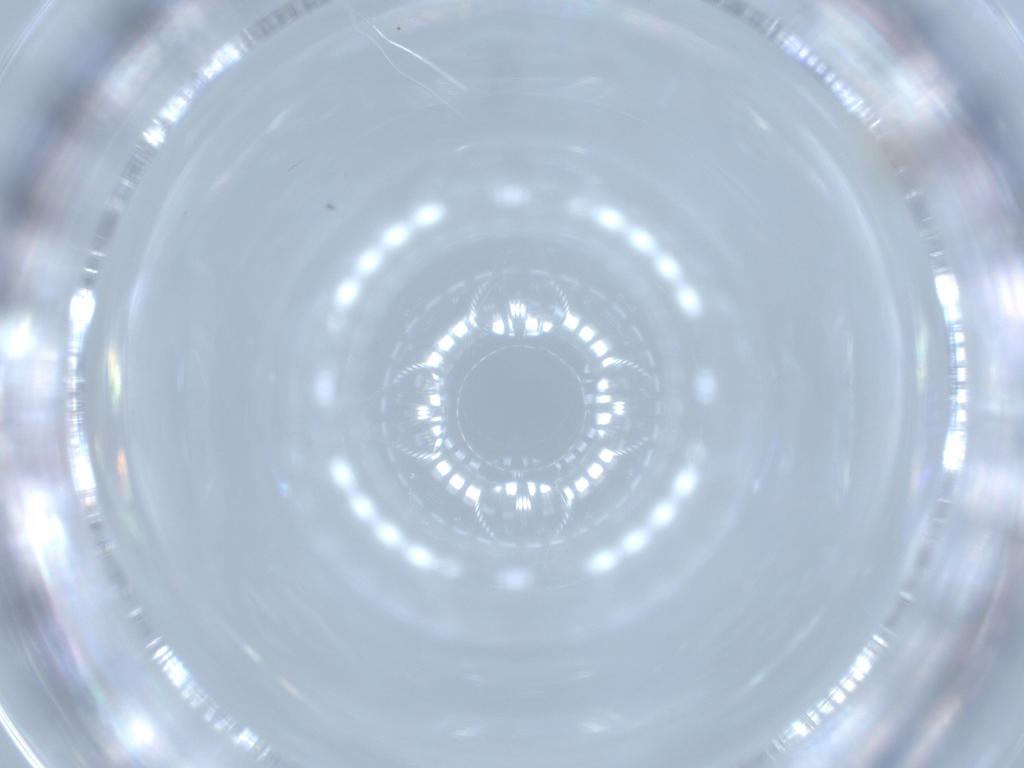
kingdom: Animalia
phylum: Arthropoda
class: Insecta
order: Diptera
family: Cecidomyiidae
